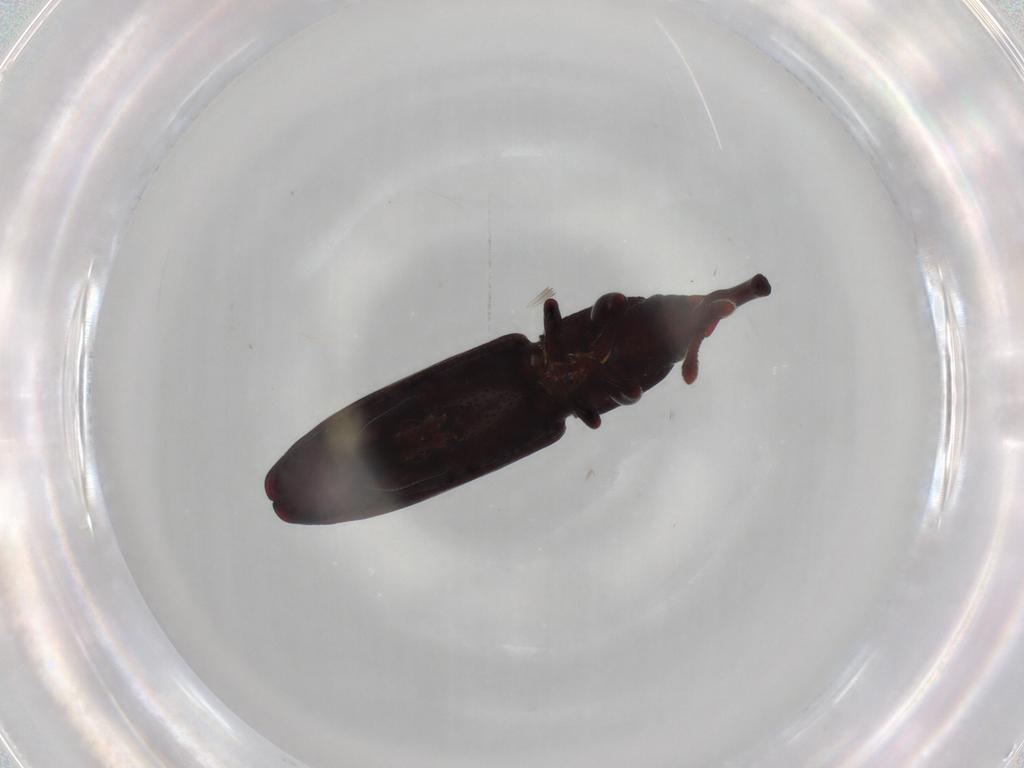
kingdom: Animalia
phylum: Arthropoda
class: Insecta
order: Coleoptera
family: Curculionidae
